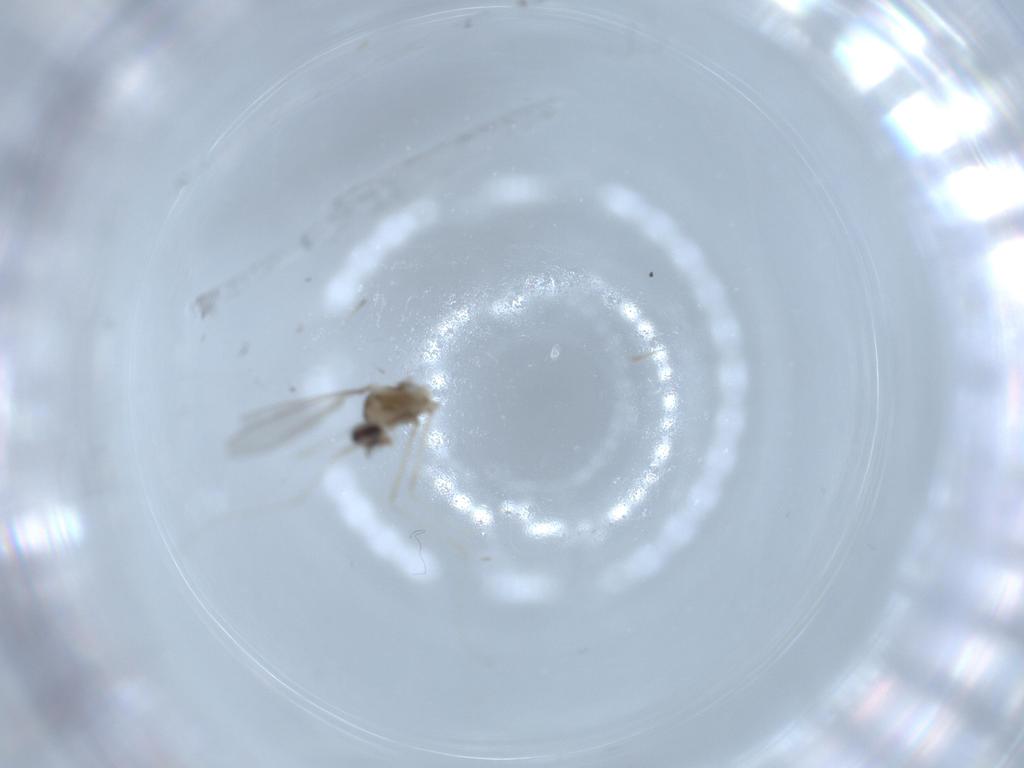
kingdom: Animalia
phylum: Arthropoda
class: Insecta
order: Diptera
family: Cecidomyiidae
